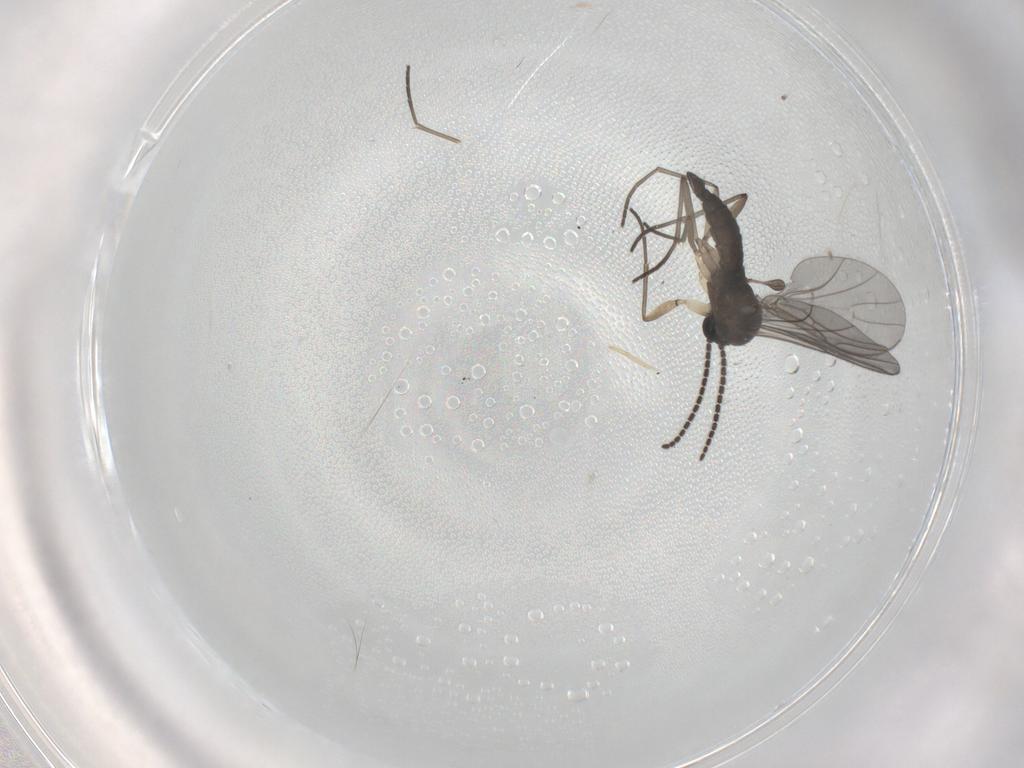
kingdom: Animalia
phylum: Arthropoda
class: Insecta
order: Diptera
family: Sciaridae
